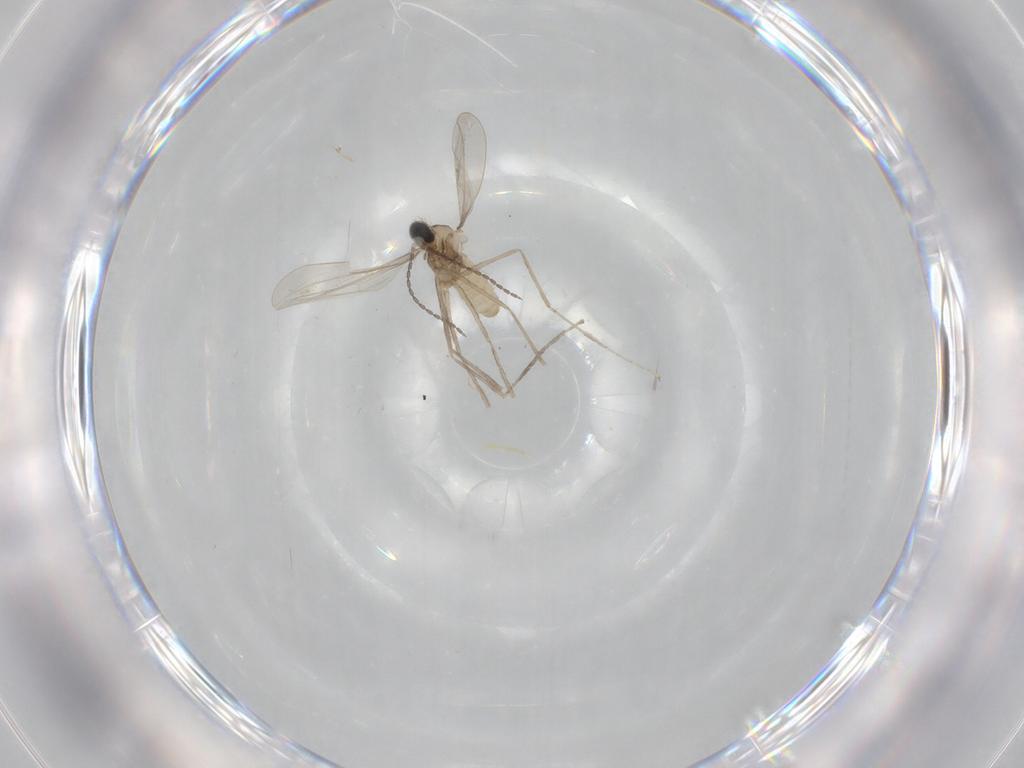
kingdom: Animalia
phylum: Arthropoda
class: Insecta
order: Diptera
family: Cecidomyiidae
